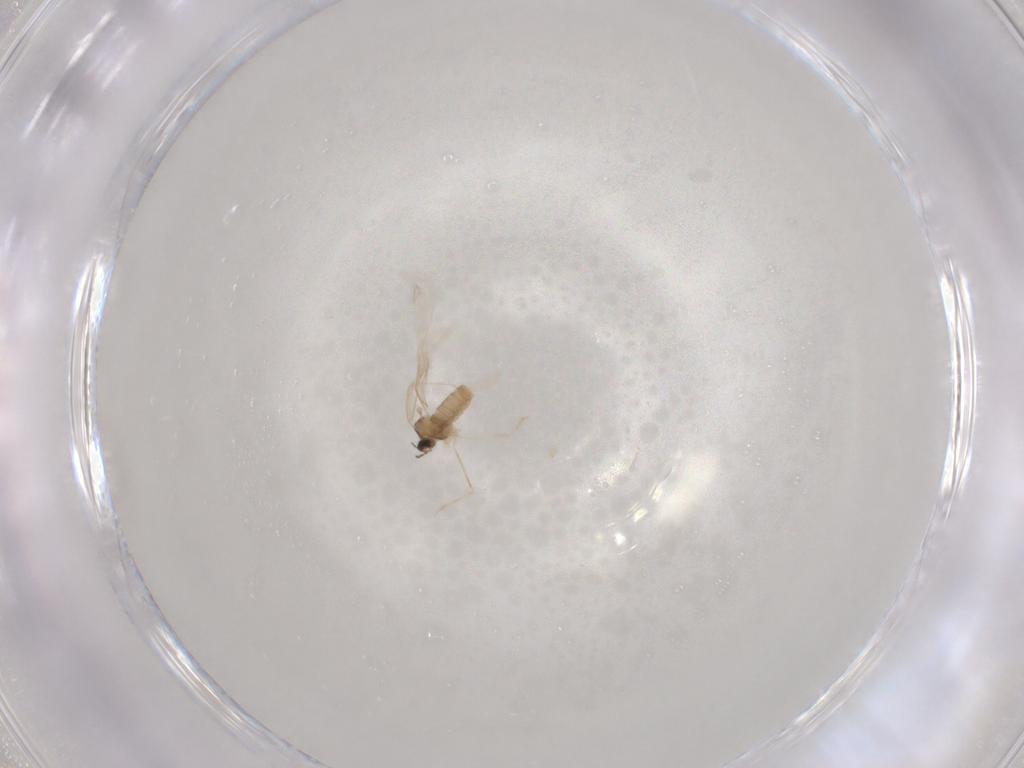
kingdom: Animalia
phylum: Arthropoda
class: Insecta
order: Diptera
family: Cecidomyiidae
